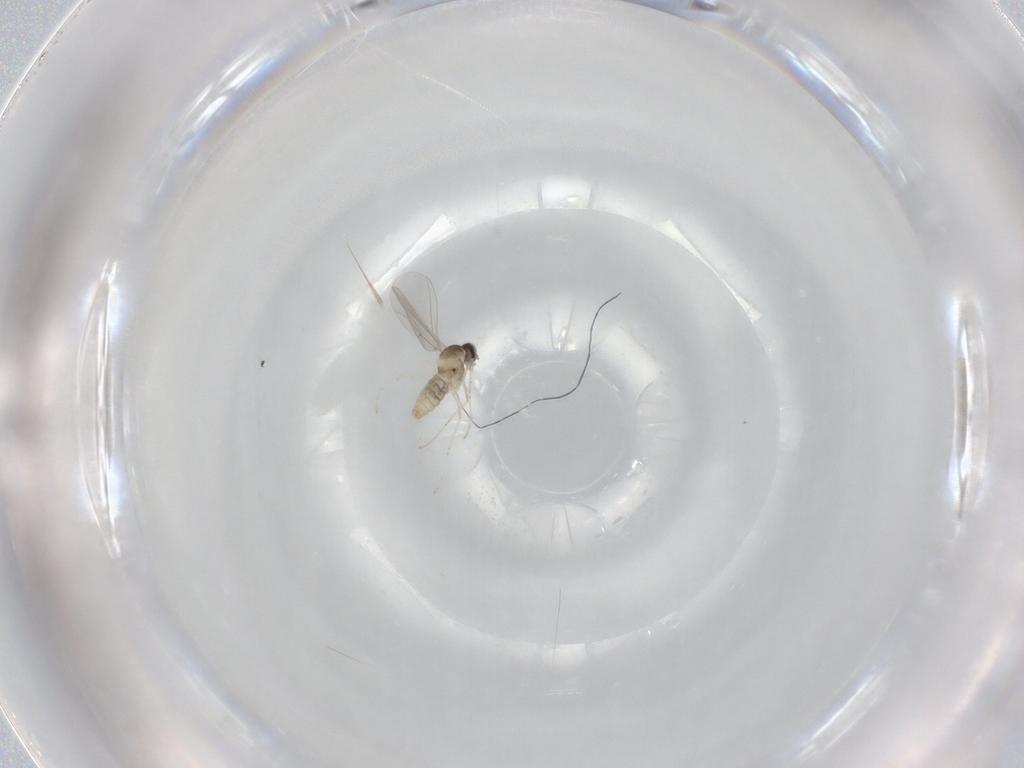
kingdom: Animalia
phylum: Arthropoda
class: Insecta
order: Diptera
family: Cecidomyiidae
